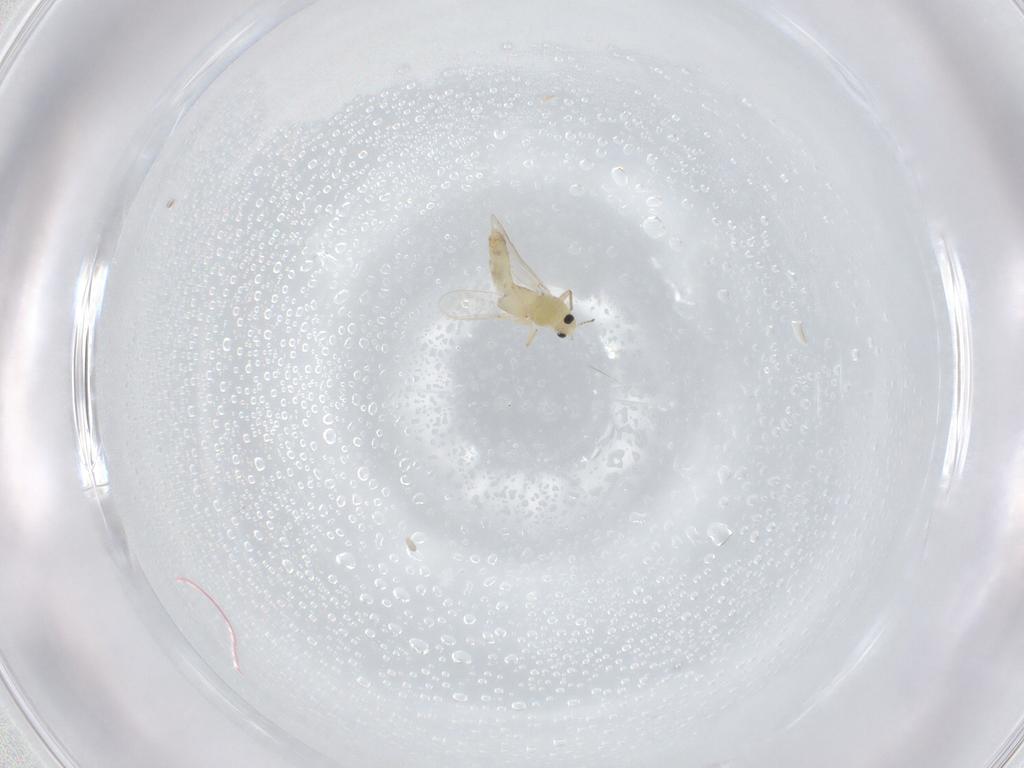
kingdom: Animalia
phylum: Arthropoda
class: Insecta
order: Diptera
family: Chironomidae
